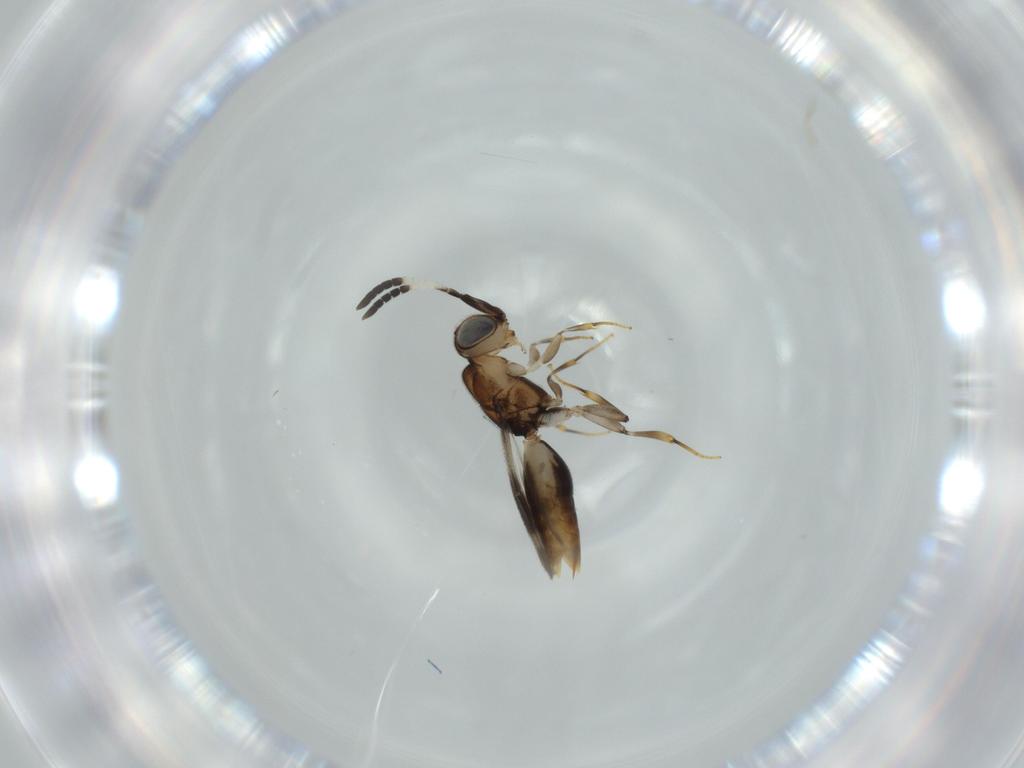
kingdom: Animalia
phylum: Arthropoda
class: Insecta
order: Hymenoptera
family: Megaspilidae
